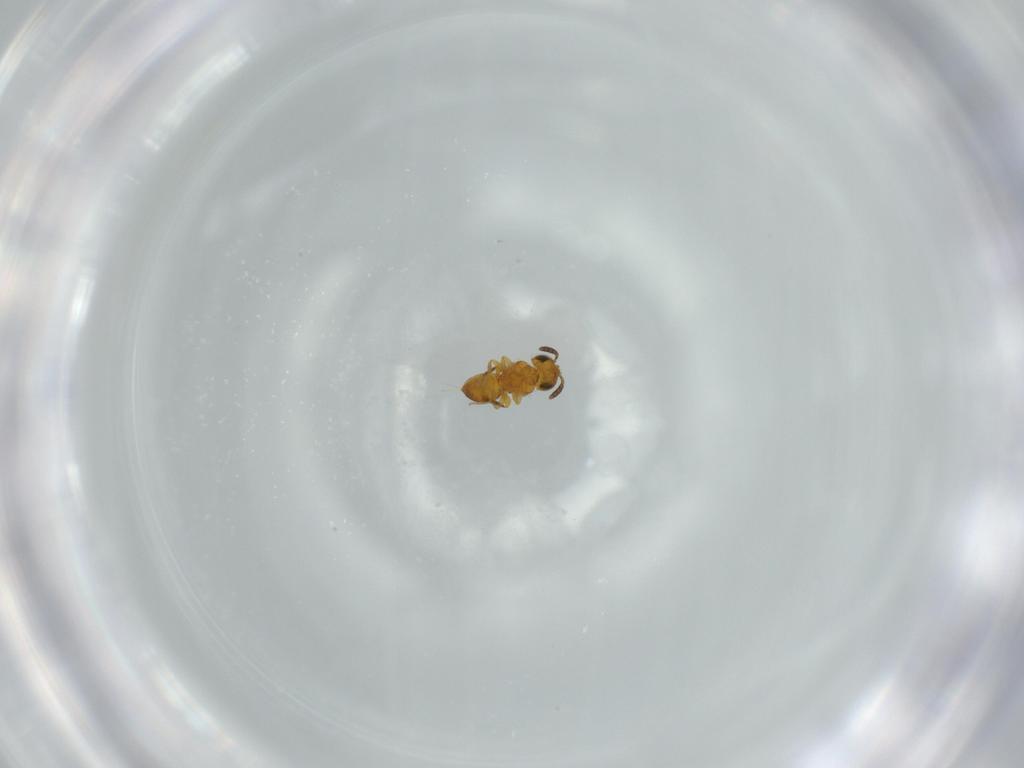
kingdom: Animalia
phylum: Arthropoda
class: Insecta
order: Hymenoptera
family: Scelionidae
